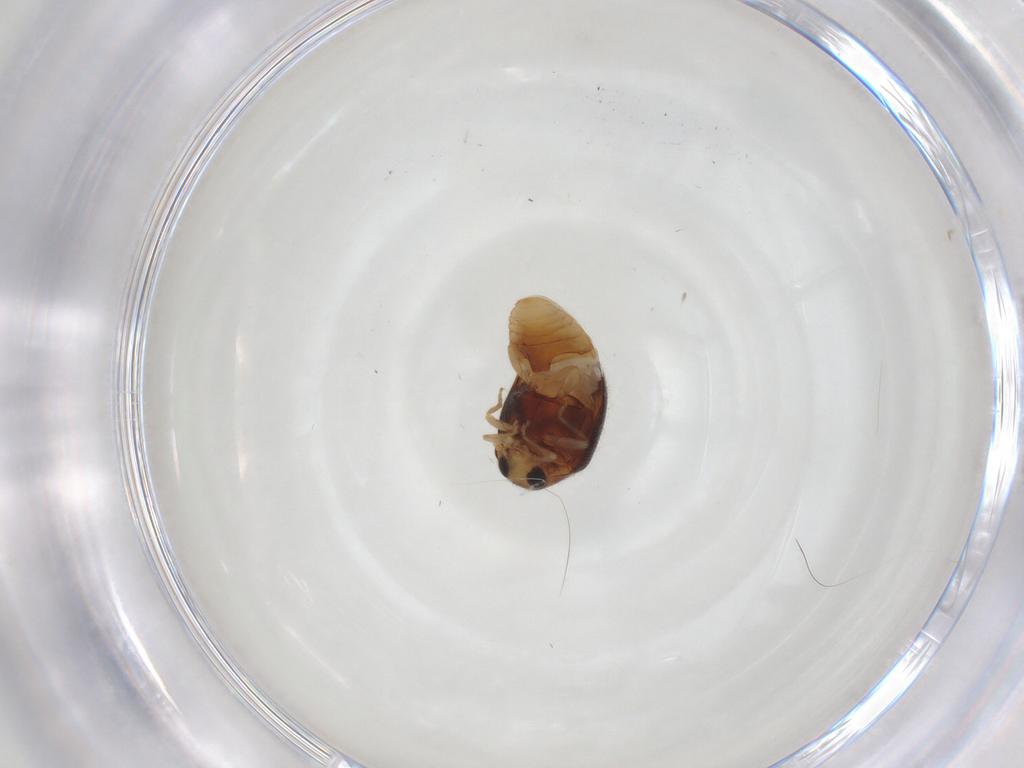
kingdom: Animalia
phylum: Arthropoda
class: Insecta
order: Coleoptera
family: Coccinellidae
